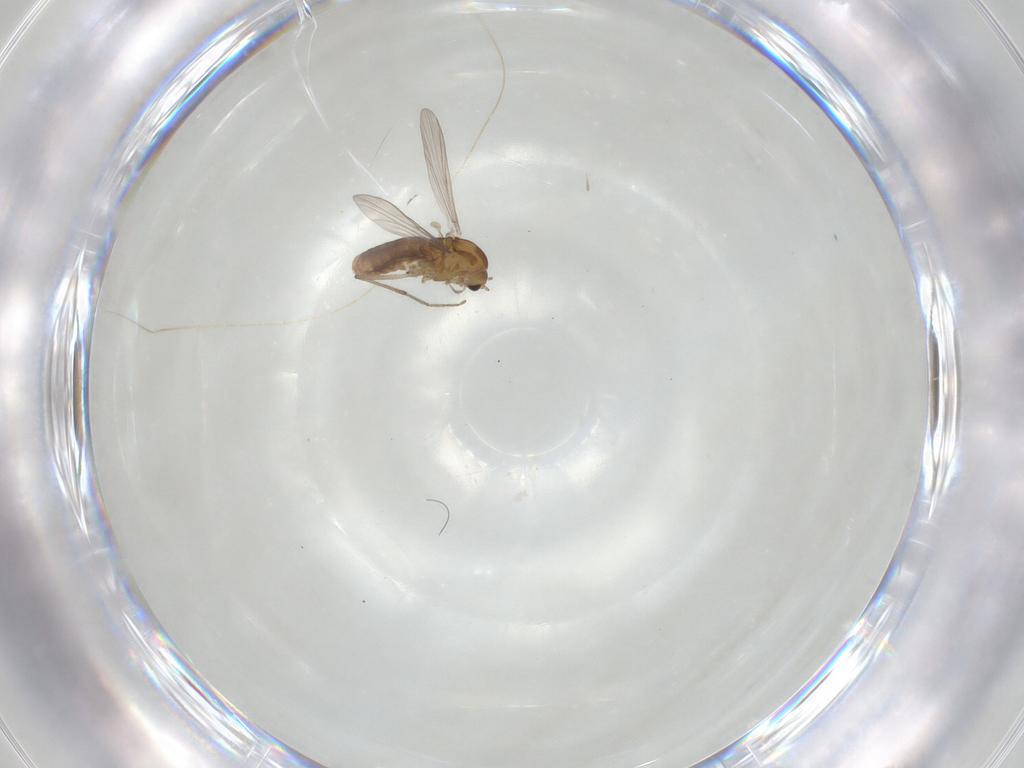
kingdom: Animalia
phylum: Arthropoda
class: Insecta
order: Diptera
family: Chironomidae
